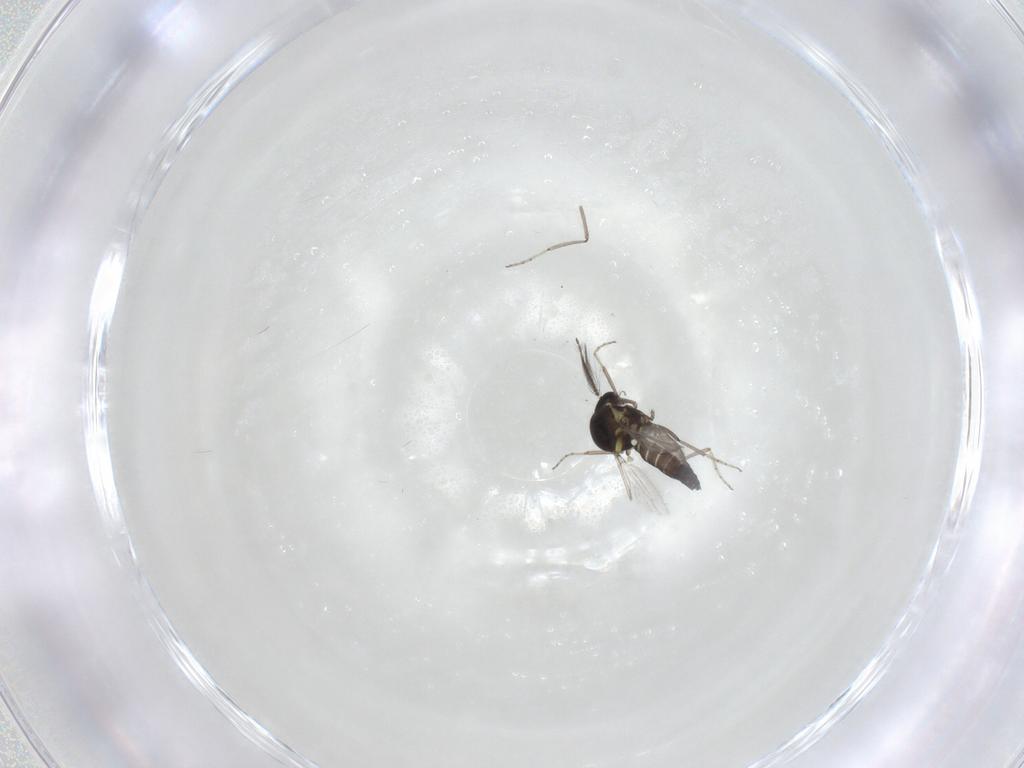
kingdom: Animalia
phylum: Arthropoda
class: Insecta
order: Diptera
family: Ceratopogonidae
